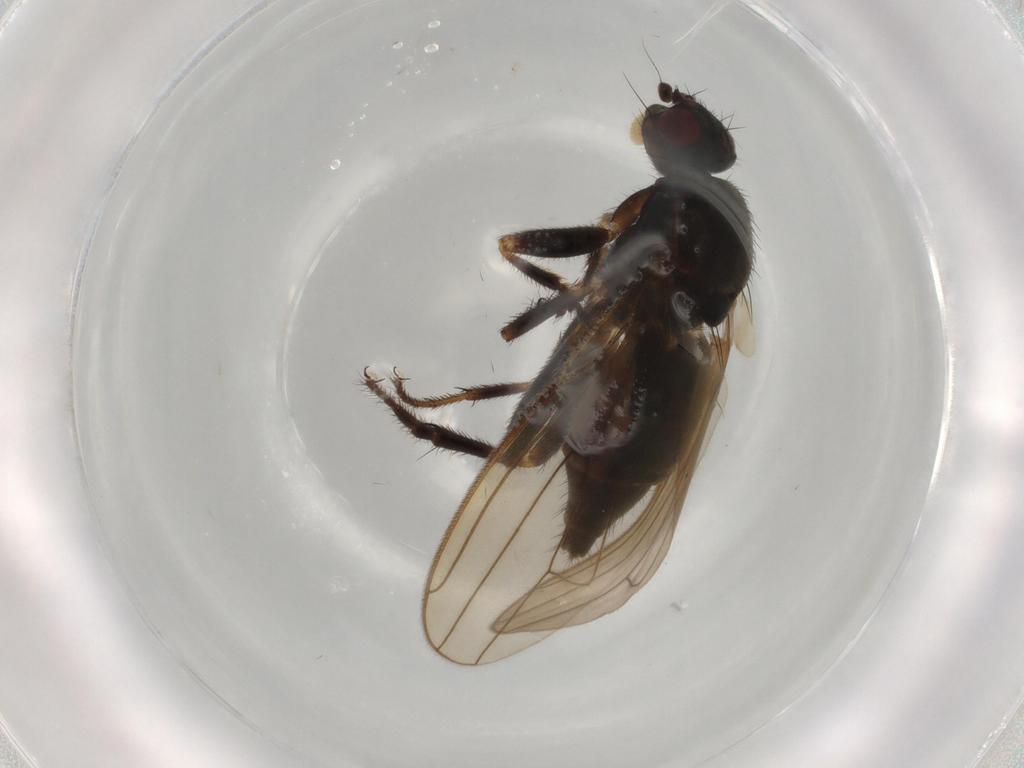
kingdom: Animalia
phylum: Arthropoda
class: Insecta
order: Diptera
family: Sphaeroceridae
